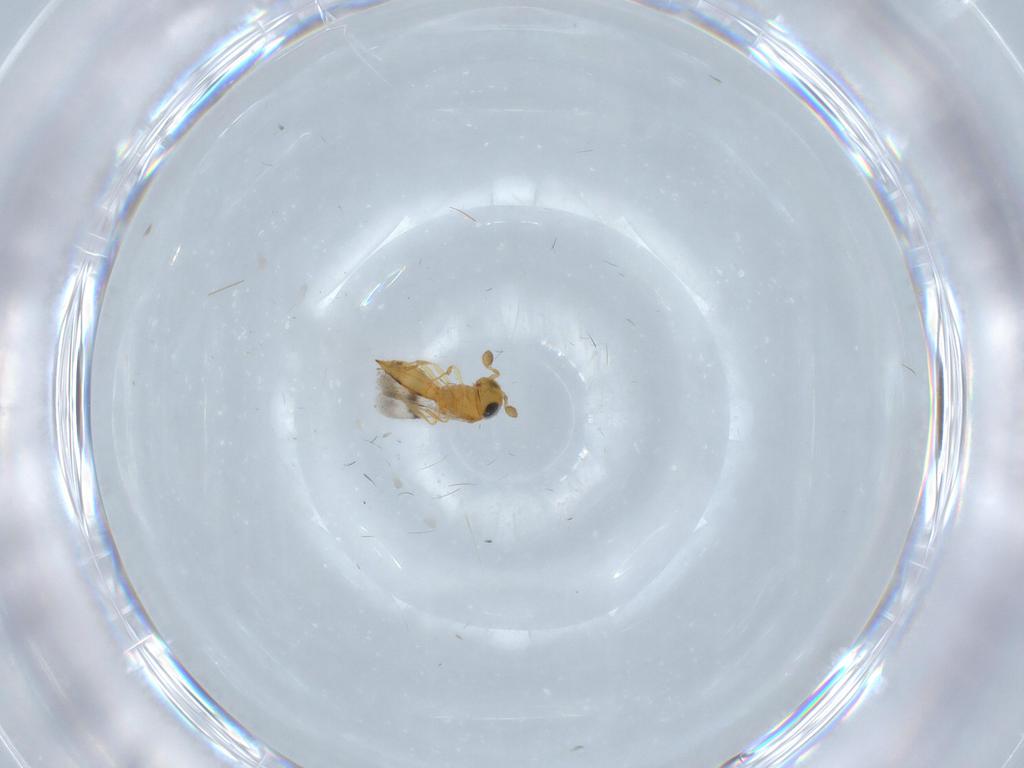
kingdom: Animalia
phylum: Arthropoda
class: Insecta
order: Hymenoptera
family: Scelionidae
